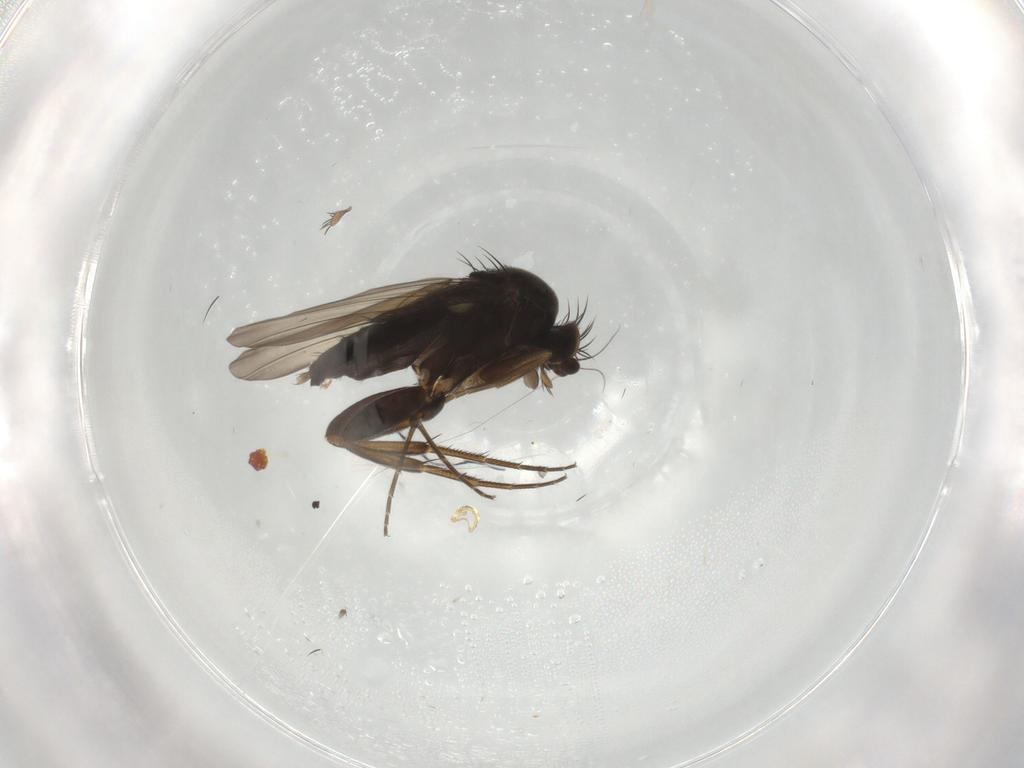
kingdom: Animalia
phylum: Arthropoda
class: Insecta
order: Diptera
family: Phoridae
